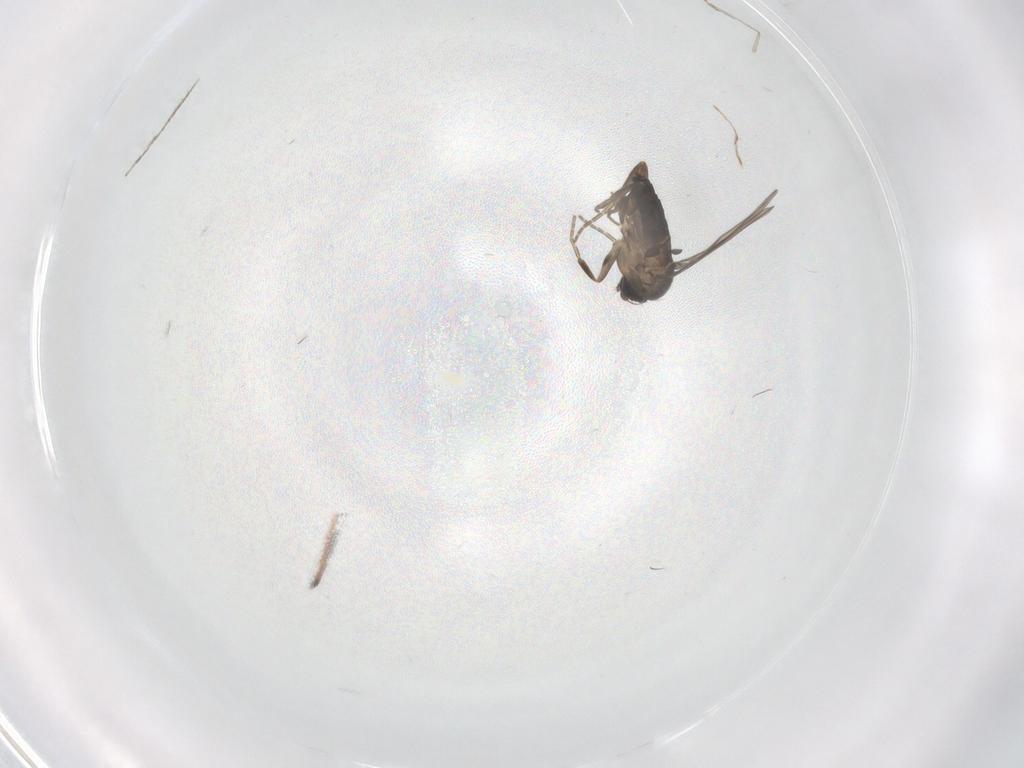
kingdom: Animalia
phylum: Arthropoda
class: Insecta
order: Diptera
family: Psychodidae
